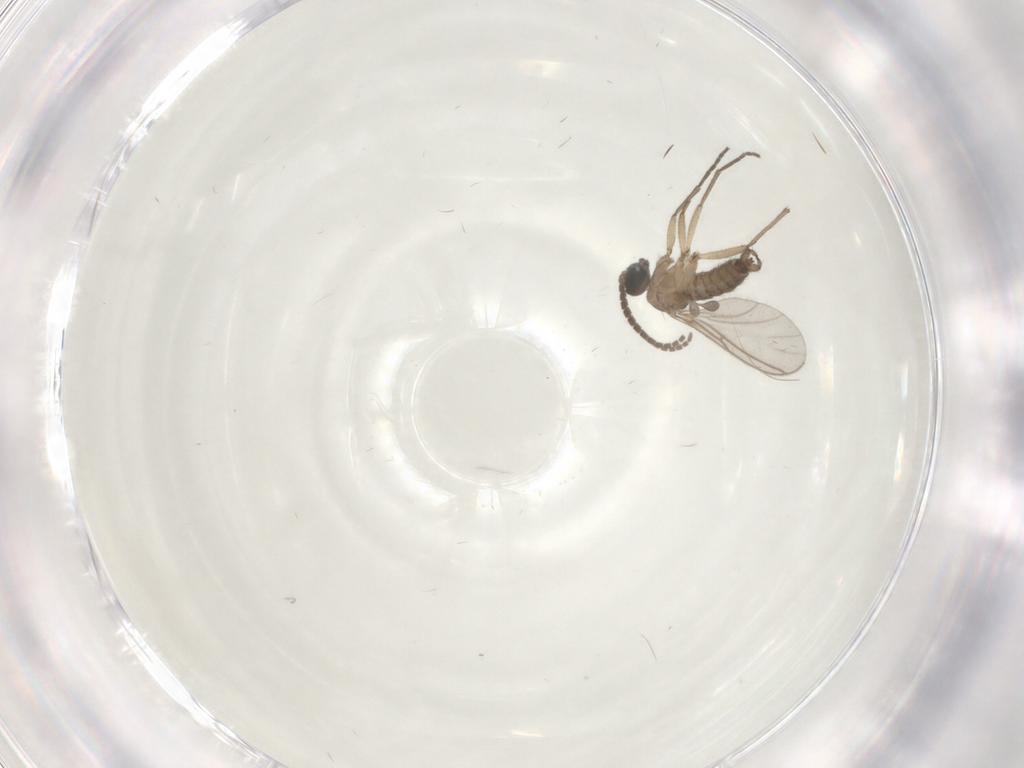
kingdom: Animalia
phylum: Arthropoda
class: Insecta
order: Diptera
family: Sciaridae
